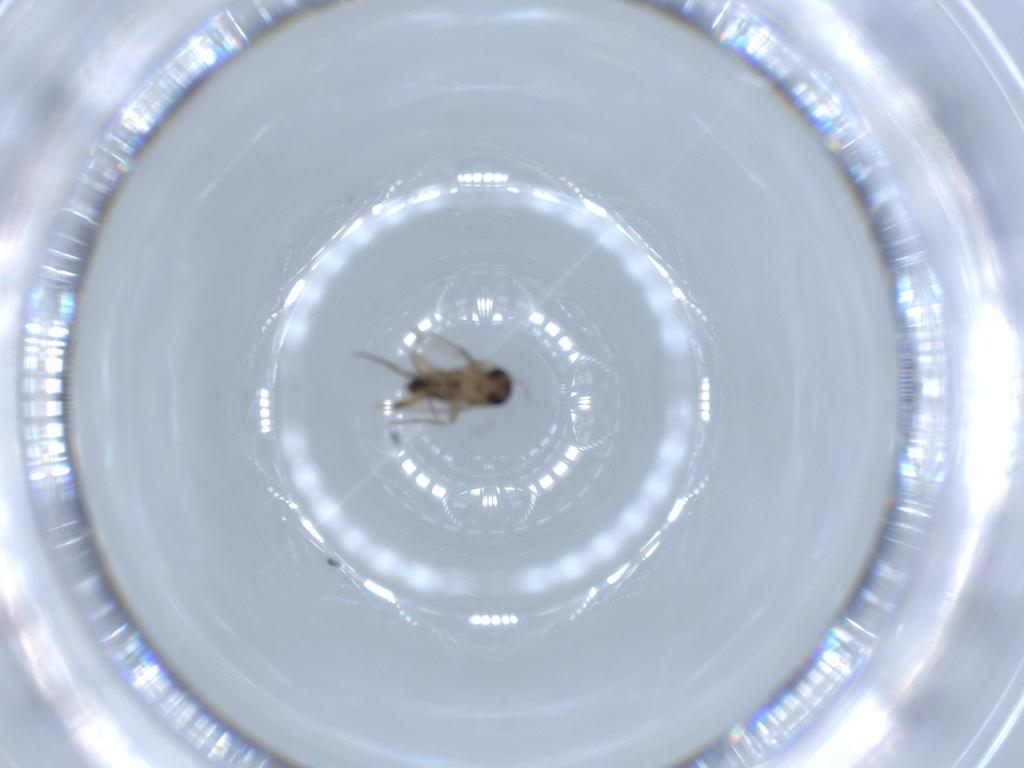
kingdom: Animalia
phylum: Arthropoda
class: Insecta
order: Diptera
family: Phoridae
